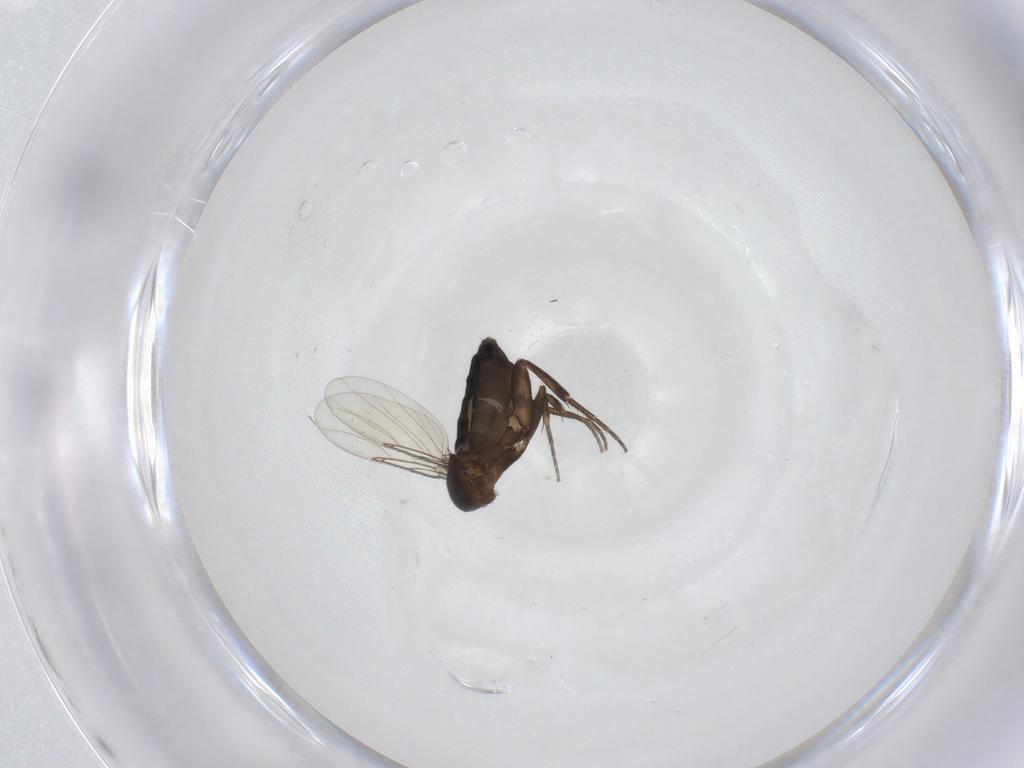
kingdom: Animalia
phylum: Arthropoda
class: Insecta
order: Diptera
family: Phoridae
